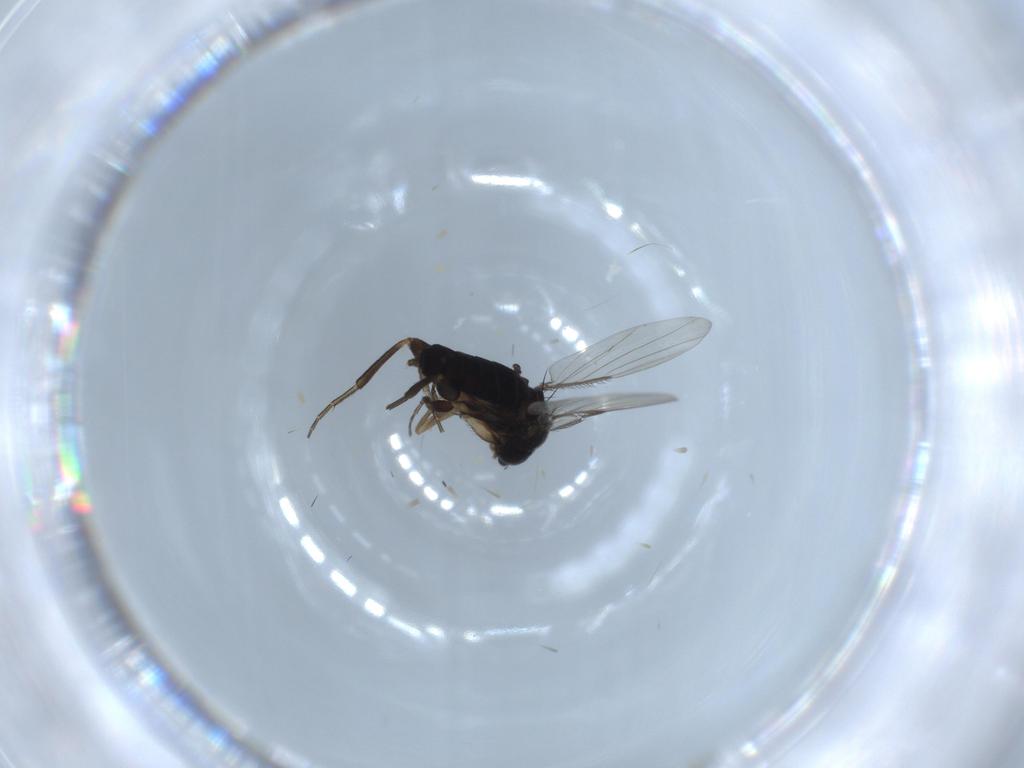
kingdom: Animalia
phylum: Arthropoda
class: Insecta
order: Diptera
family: Phoridae
